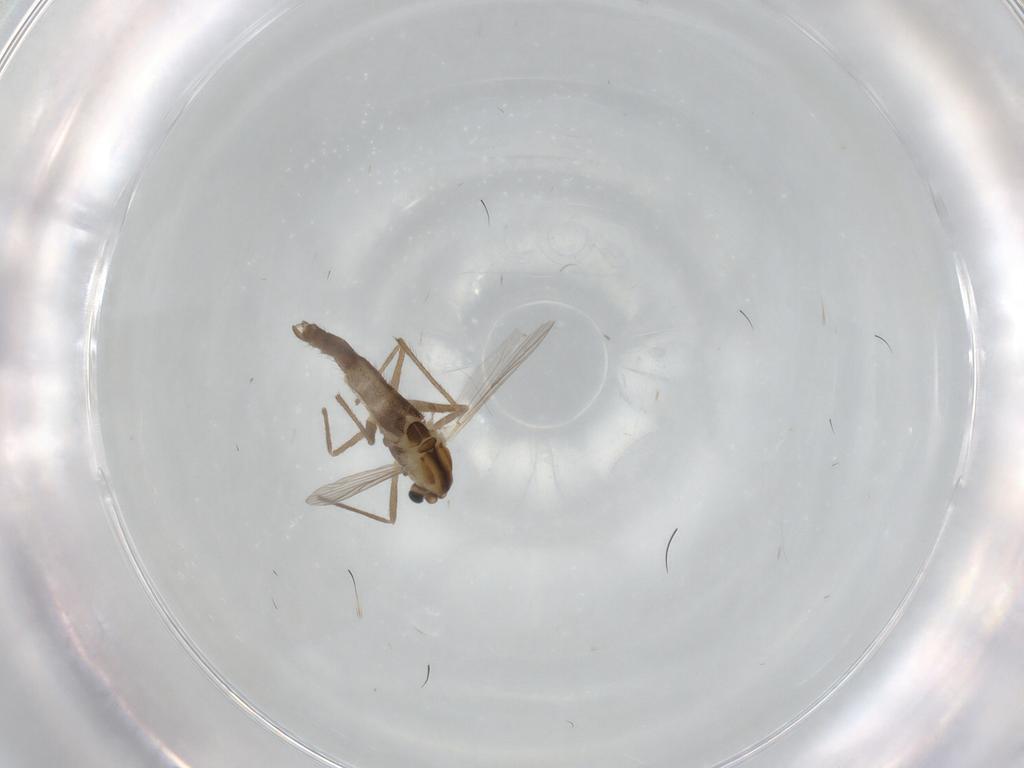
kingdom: Animalia
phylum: Arthropoda
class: Insecta
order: Diptera
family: Chironomidae
